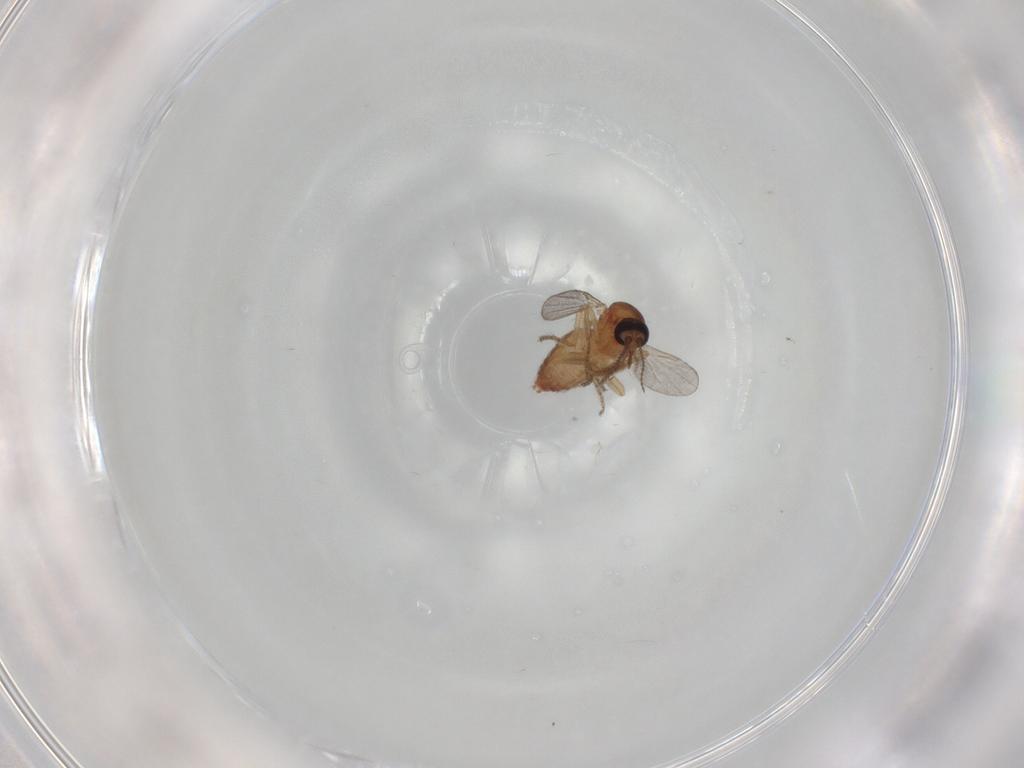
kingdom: Animalia
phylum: Arthropoda
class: Insecta
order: Diptera
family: Ceratopogonidae
